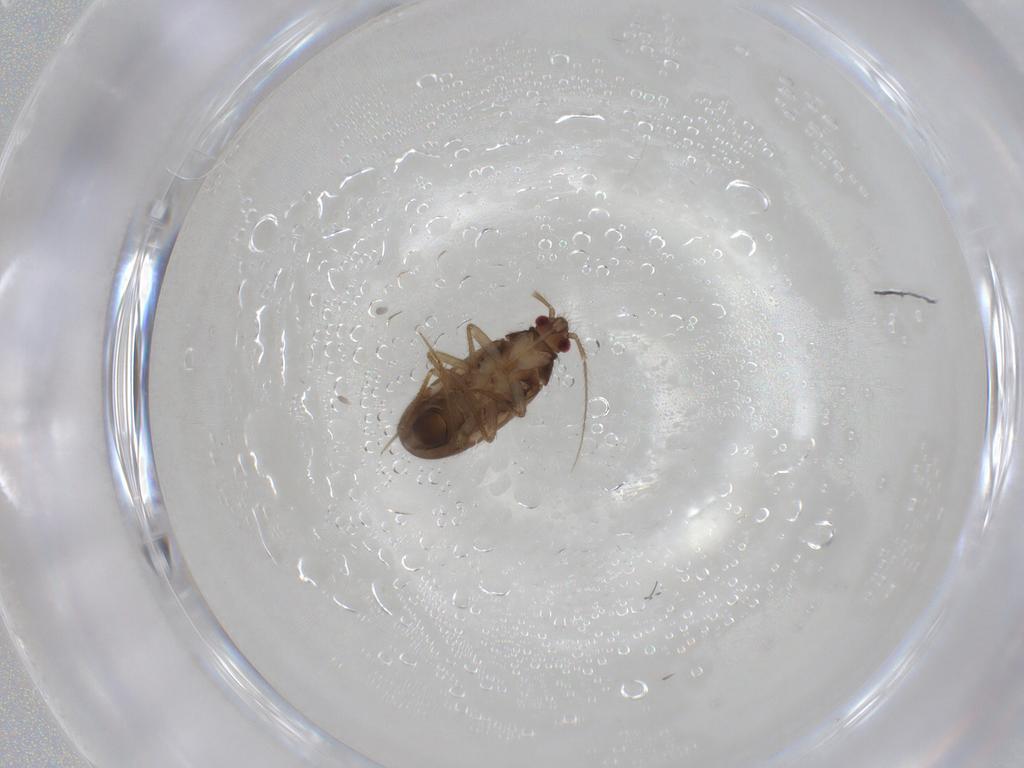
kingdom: Animalia
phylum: Arthropoda
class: Insecta
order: Hemiptera
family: Ceratocombidae
